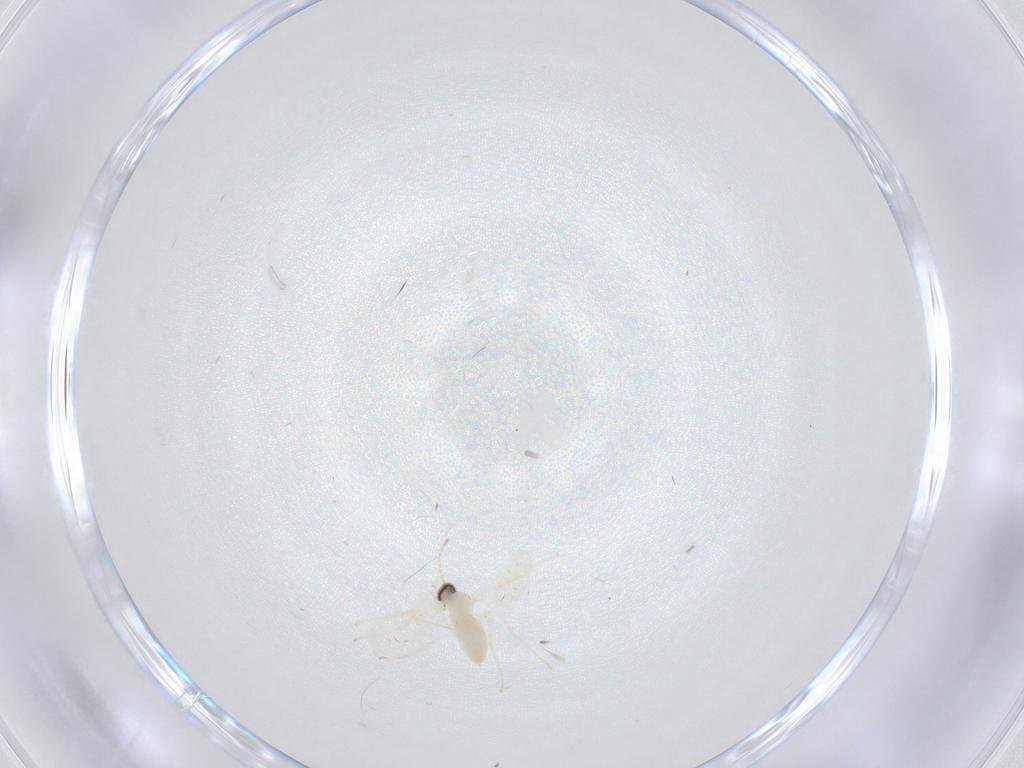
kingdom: Animalia
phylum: Arthropoda
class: Insecta
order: Diptera
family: Cecidomyiidae
